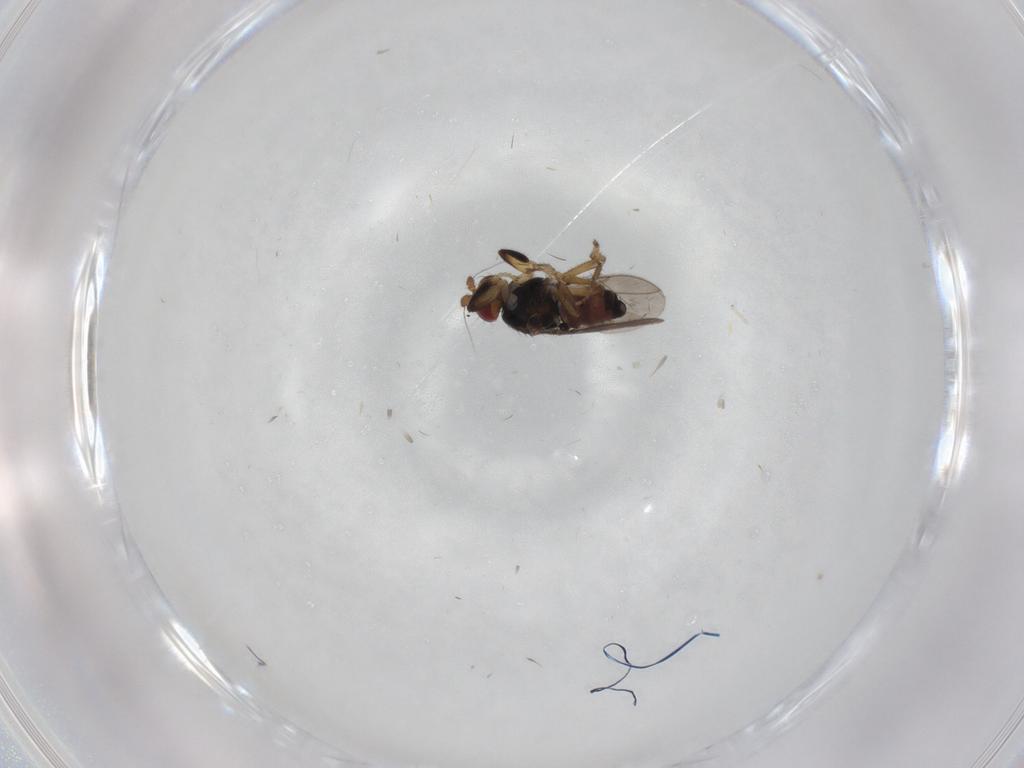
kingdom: Animalia
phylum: Arthropoda
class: Insecta
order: Diptera
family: Sphaeroceridae
